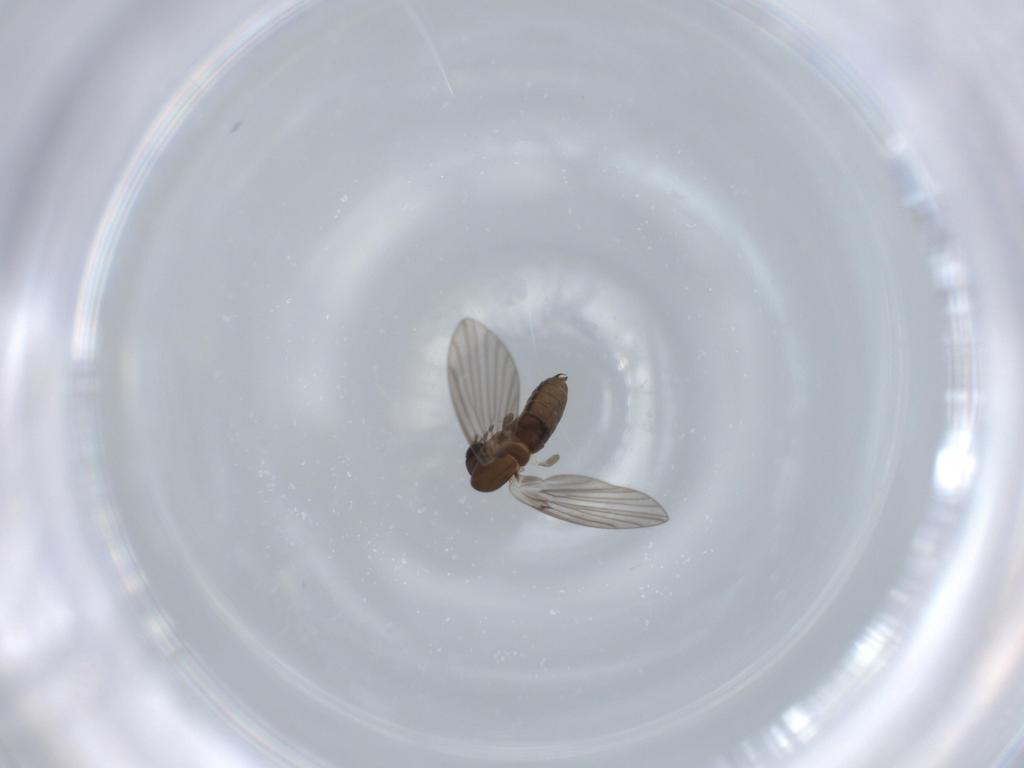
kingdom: Animalia
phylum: Arthropoda
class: Insecta
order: Diptera
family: Psychodidae
